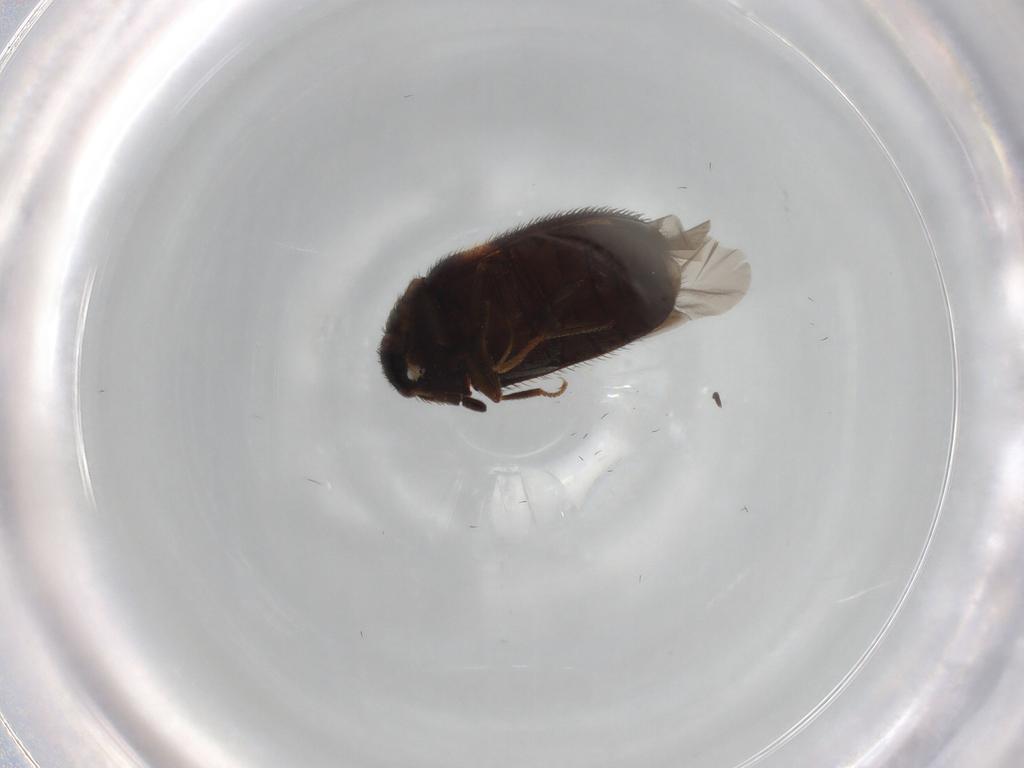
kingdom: Animalia
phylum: Arthropoda
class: Insecta
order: Coleoptera
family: Dermestidae
